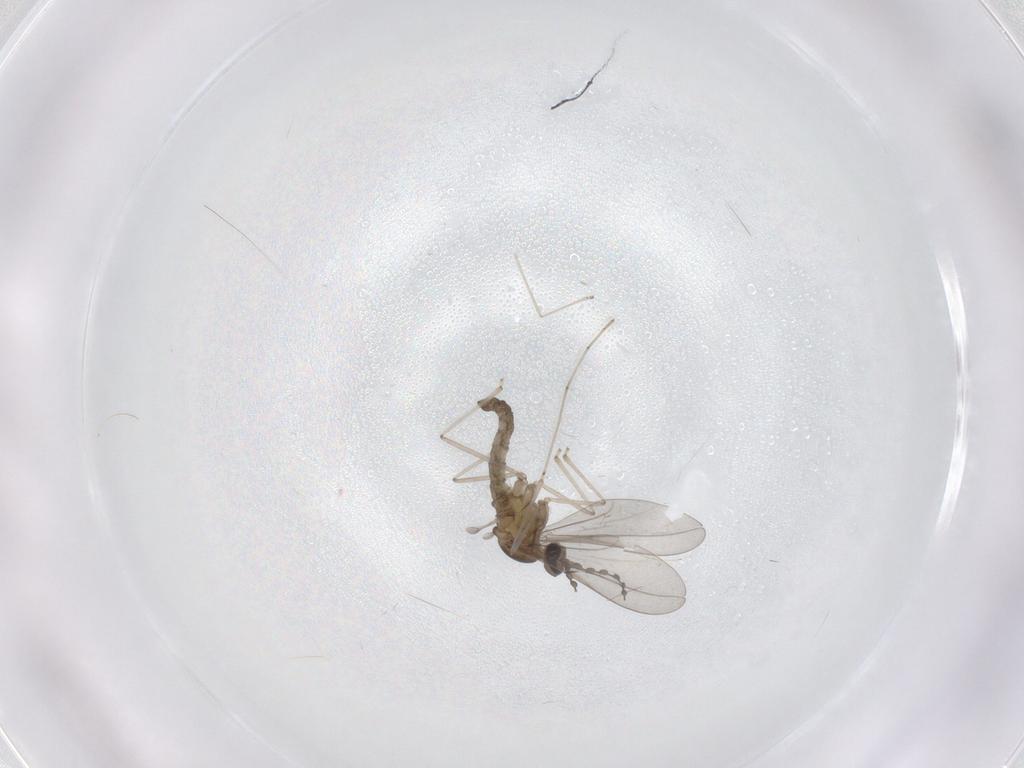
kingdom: Animalia
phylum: Arthropoda
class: Insecta
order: Diptera
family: Cecidomyiidae
